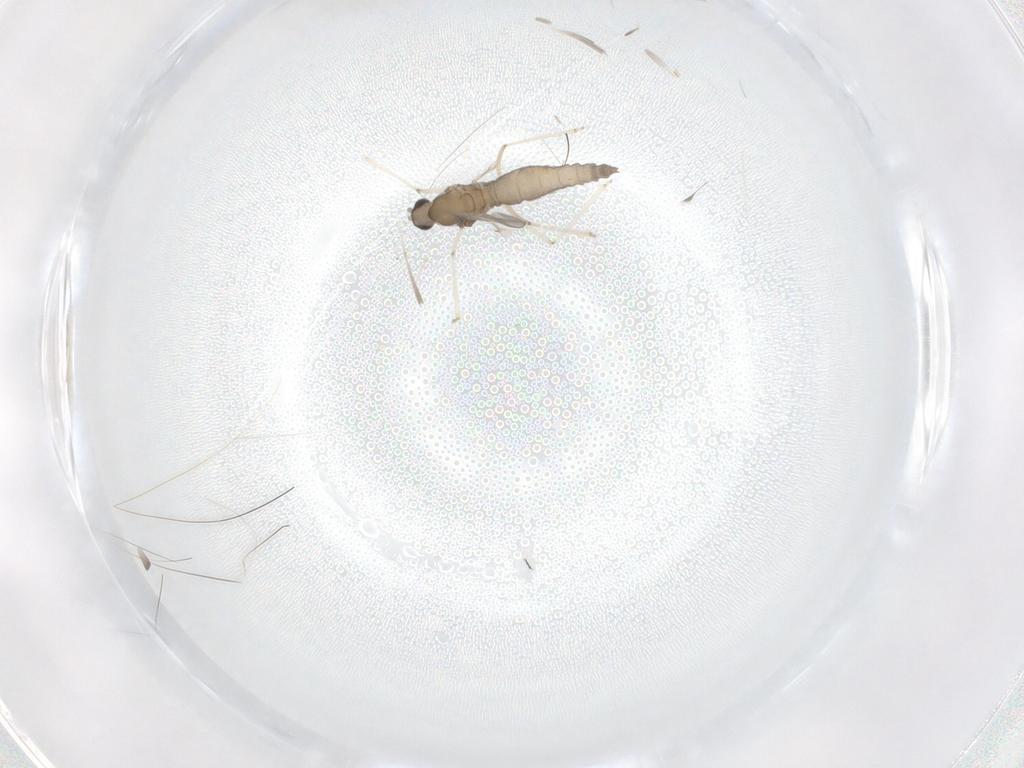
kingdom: Animalia
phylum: Arthropoda
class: Insecta
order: Diptera
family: Cecidomyiidae
